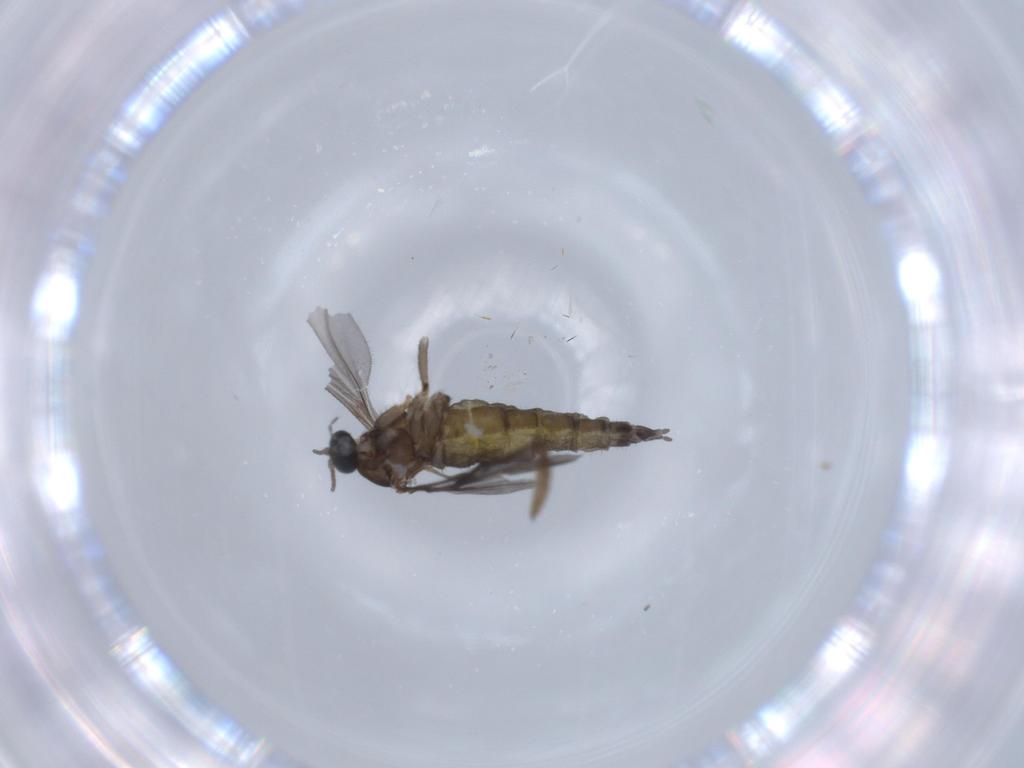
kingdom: Animalia
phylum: Arthropoda
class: Insecta
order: Diptera
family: Sciaridae
